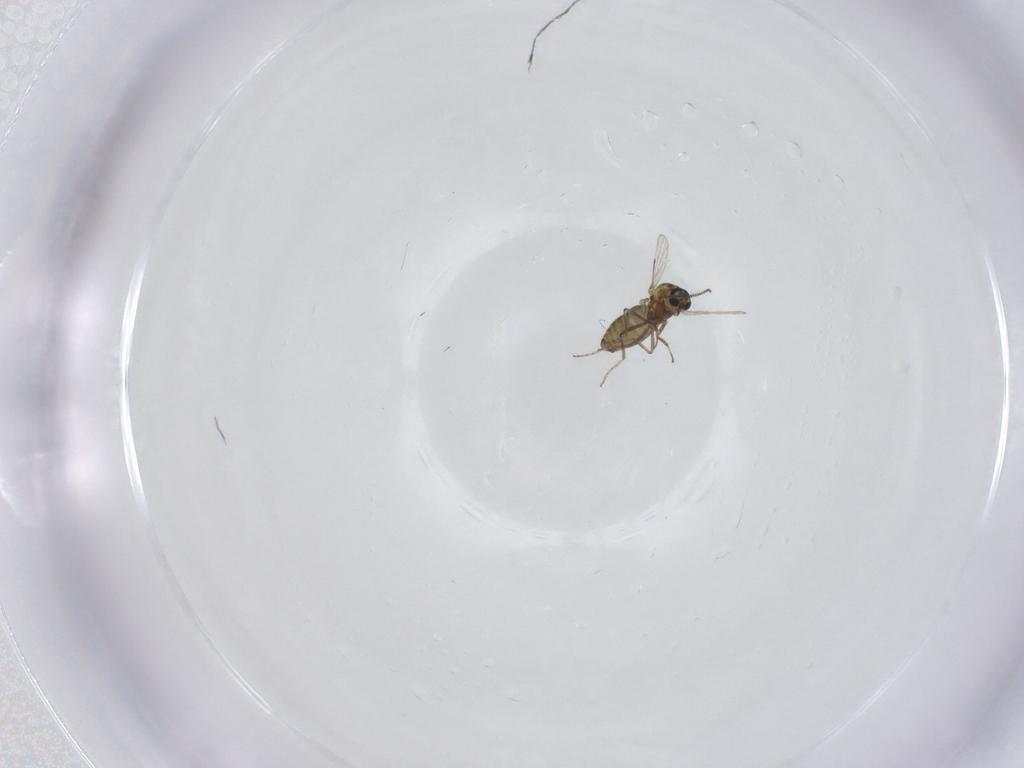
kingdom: Animalia
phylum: Arthropoda
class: Insecta
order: Diptera
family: Ceratopogonidae
